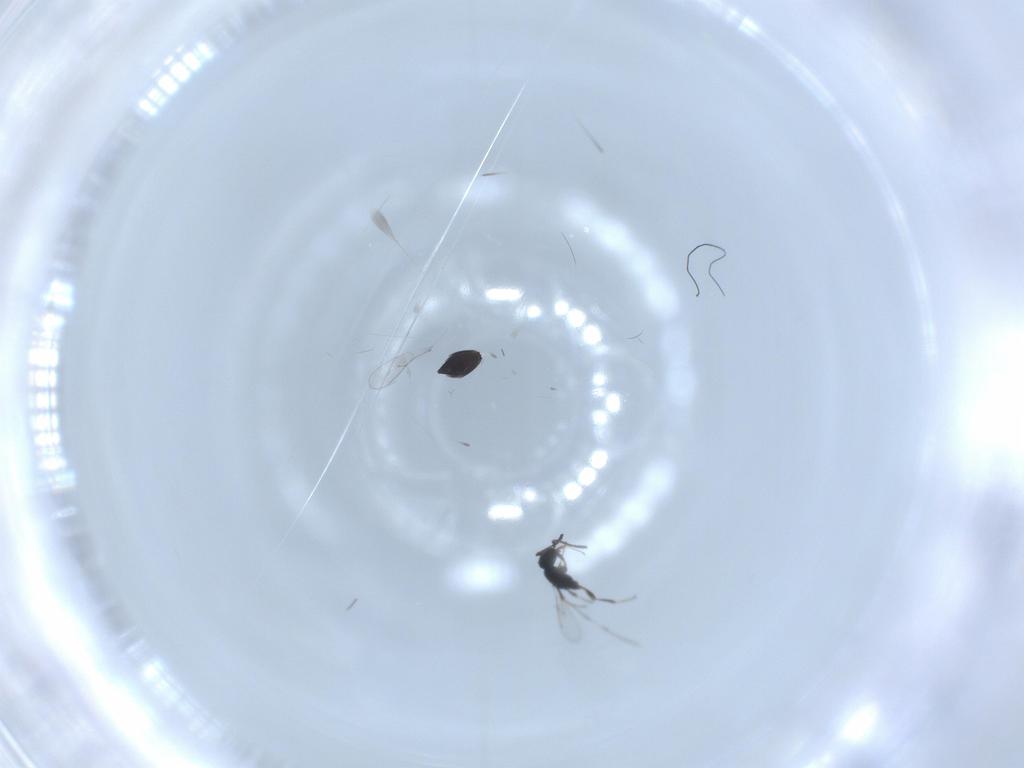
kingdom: Animalia
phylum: Arthropoda
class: Insecta
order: Hymenoptera
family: Scelionidae
